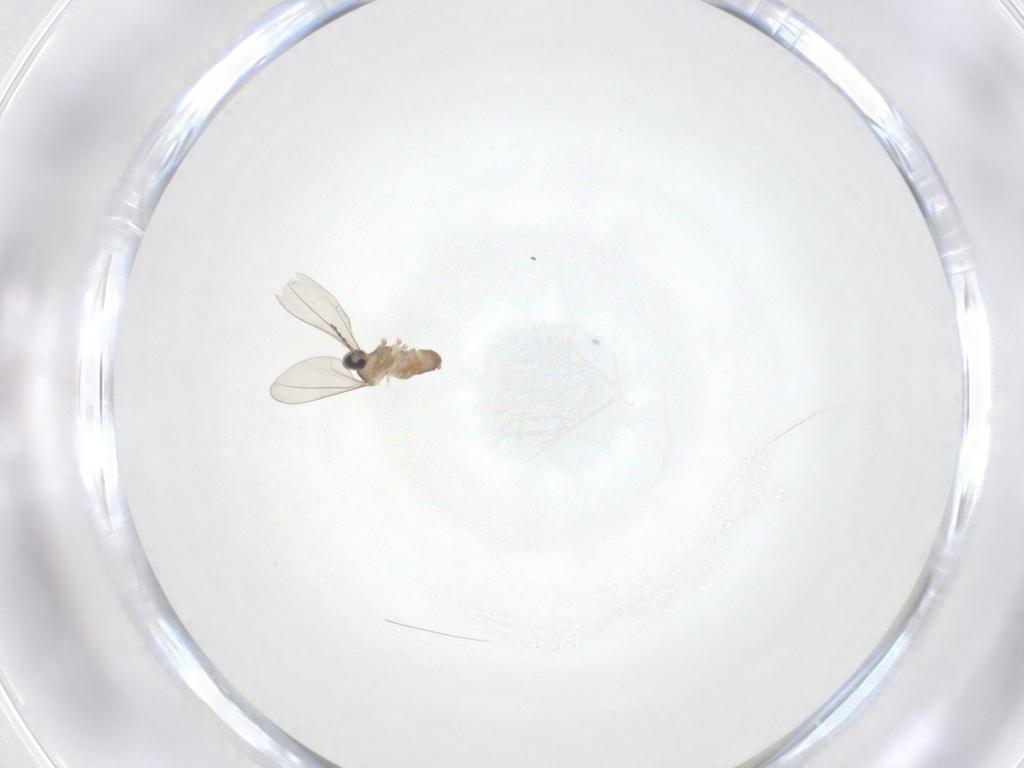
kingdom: Animalia
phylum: Arthropoda
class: Insecta
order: Diptera
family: Cecidomyiidae
